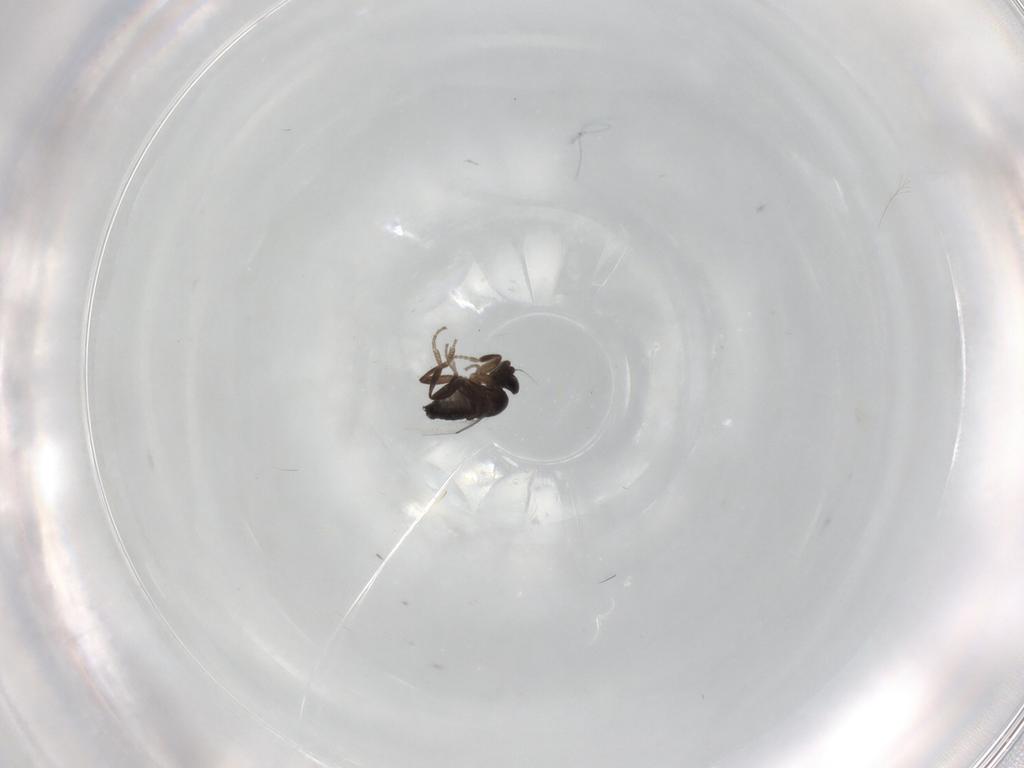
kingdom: Animalia
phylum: Arthropoda
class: Insecta
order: Diptera
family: Phoridae
